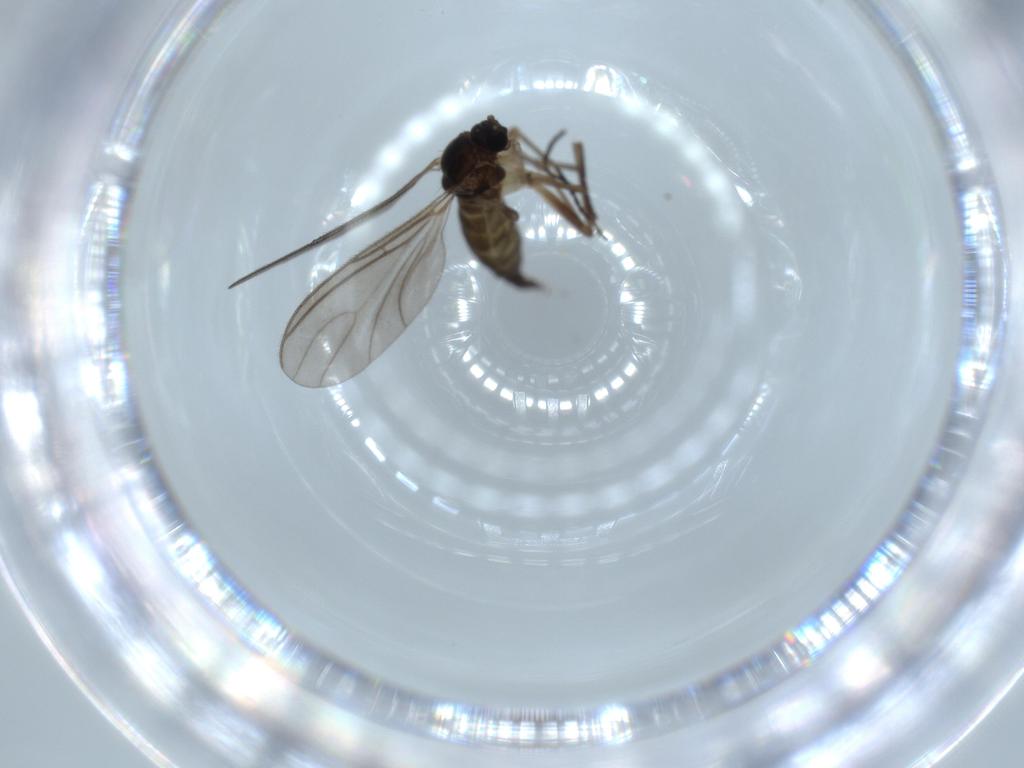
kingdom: Animalia
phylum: Arthropoda
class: Insecta
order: Diptera
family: Sciaridae
